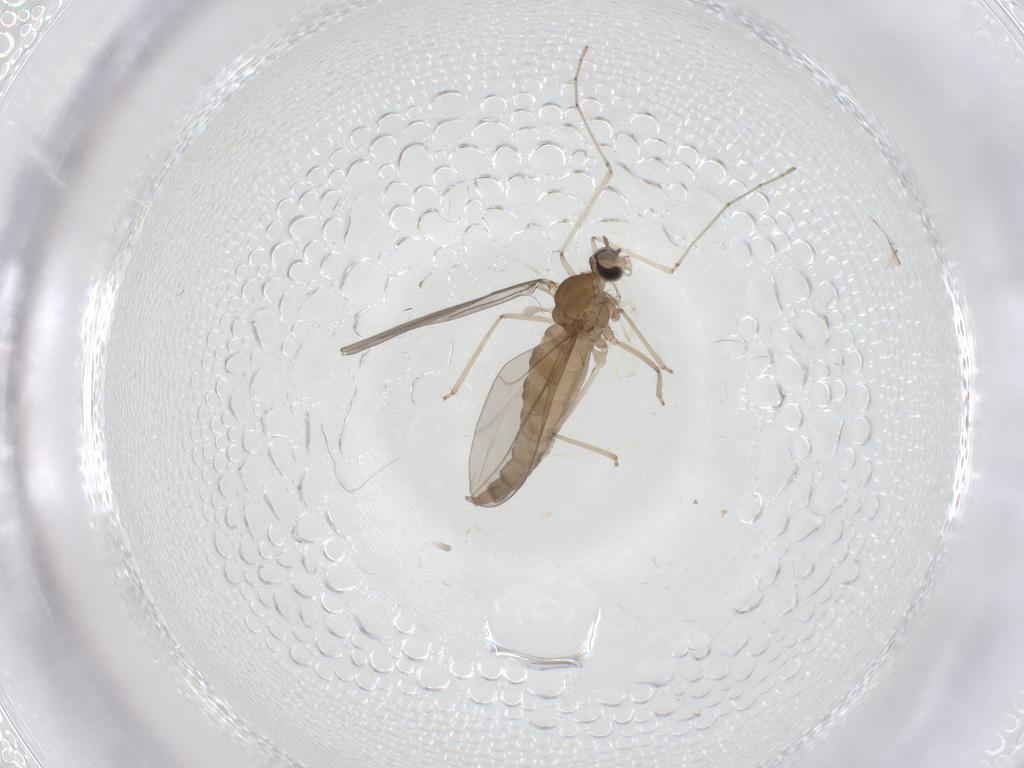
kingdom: Animalia
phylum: Arthropoda
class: Insecta
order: Diptera
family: Cecidomyiidae
